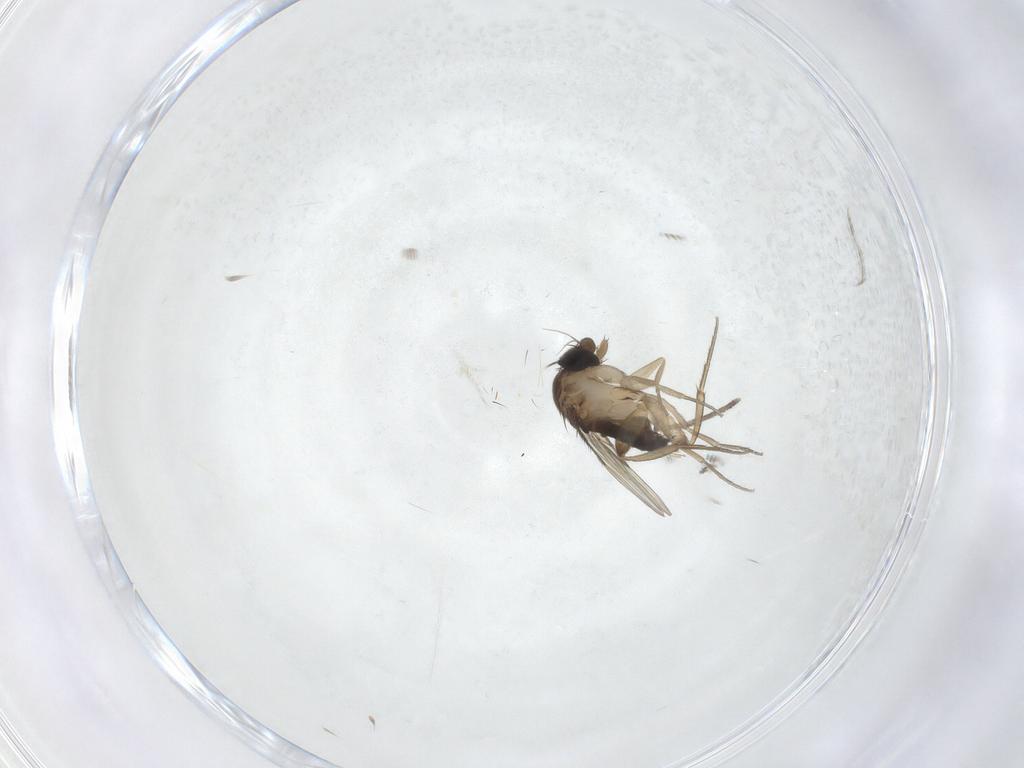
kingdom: Animalia
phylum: Arthropoda
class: Insecta
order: Diptera
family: Phoridae
